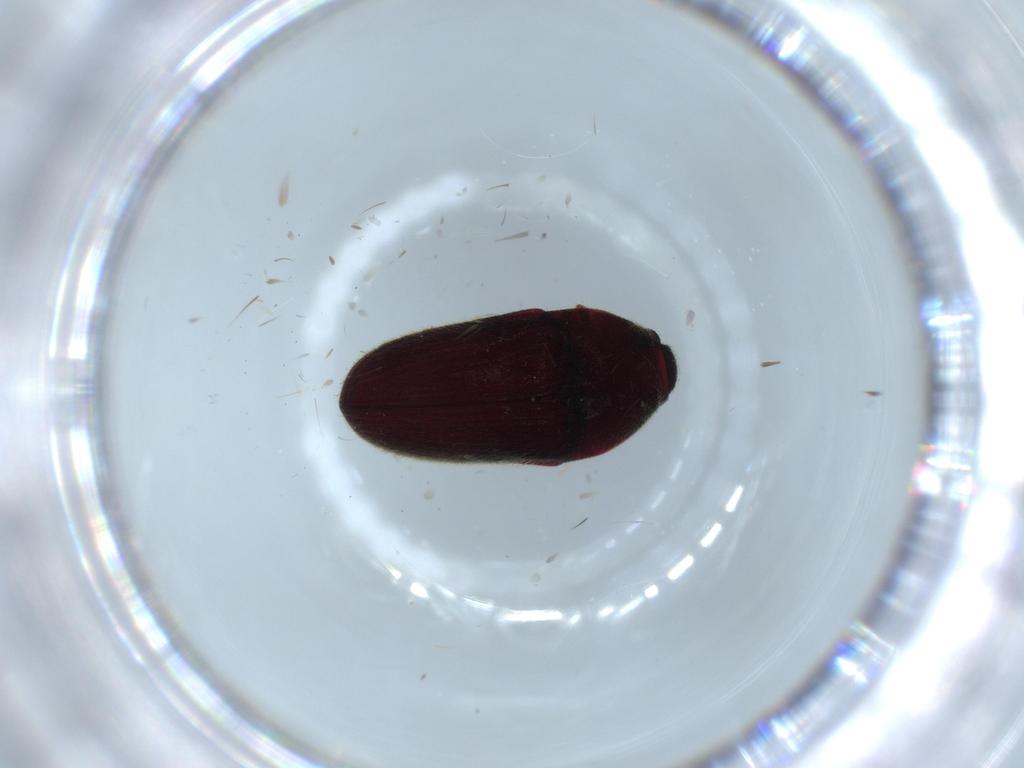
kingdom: Animalia
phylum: Arthropoda
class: Insecta
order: Coleoptera
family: Throscidae
